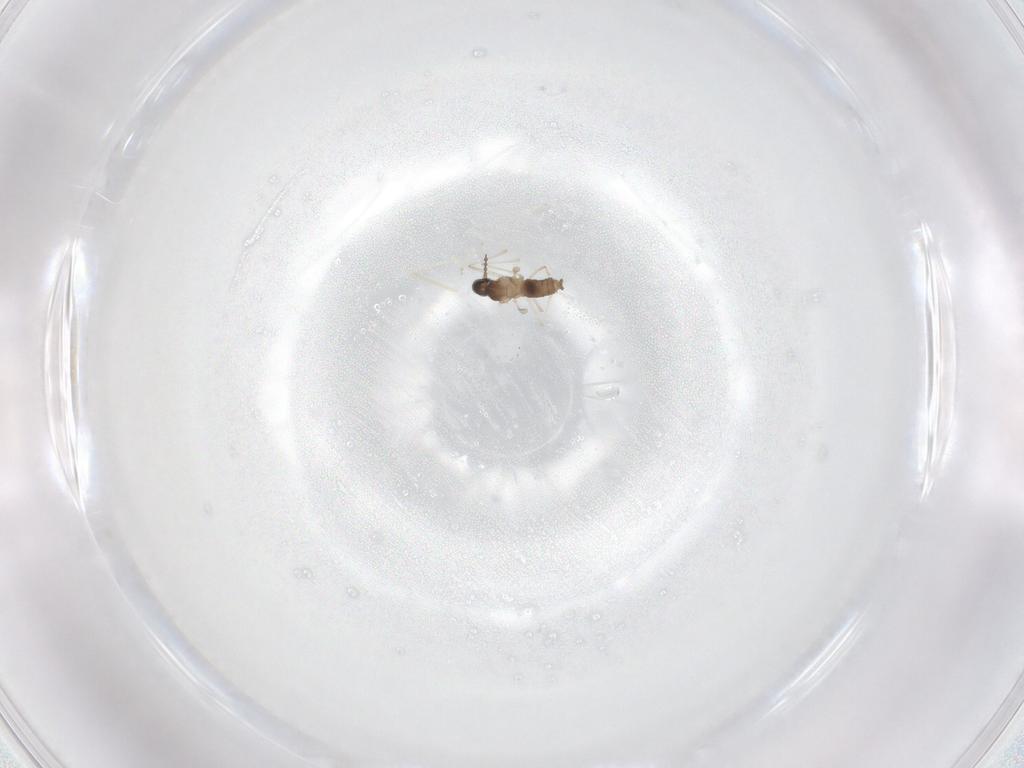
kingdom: Animalia
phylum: Arthropoda
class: Insecta
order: Diptera
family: Cecidomyiidae
